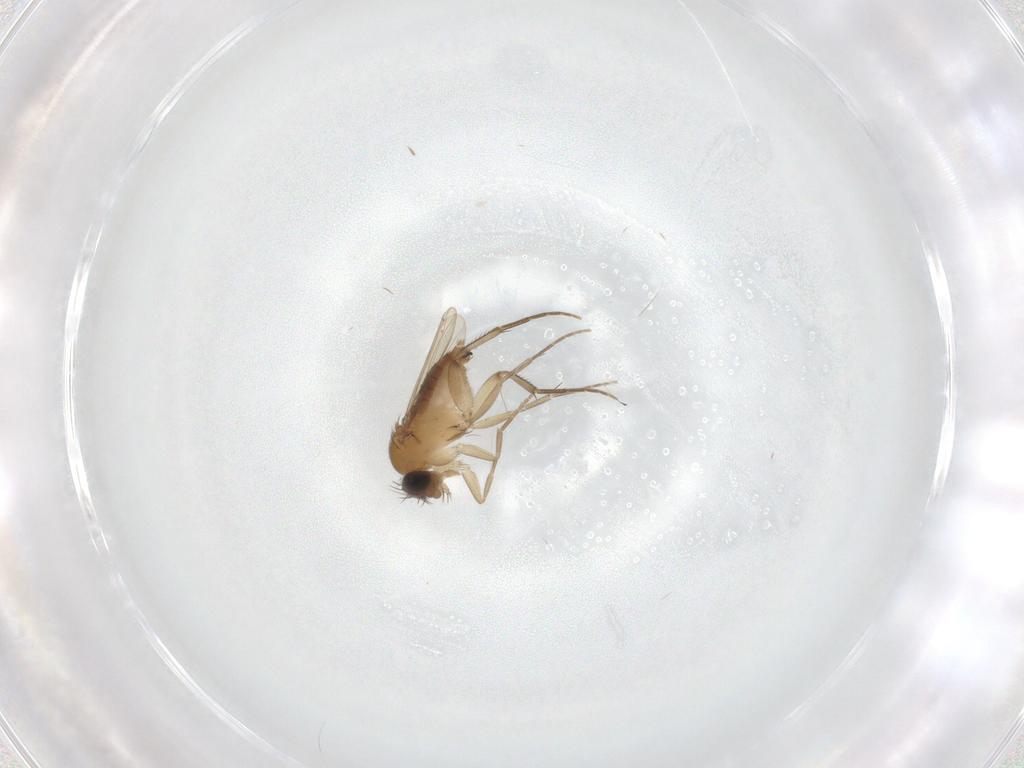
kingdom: Animalia
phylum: Arthropoda
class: Insecta
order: Diptera
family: Phoridae
